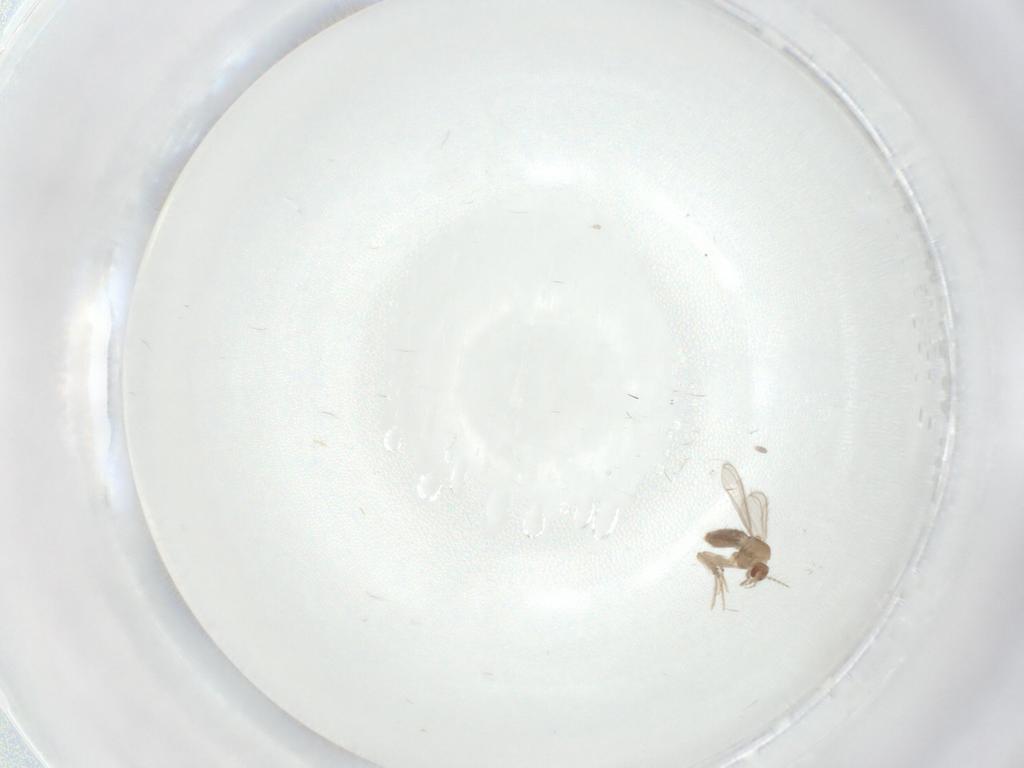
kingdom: Animalia
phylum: Arthropoda
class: Insecta
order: Diptera
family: Chironomidae
